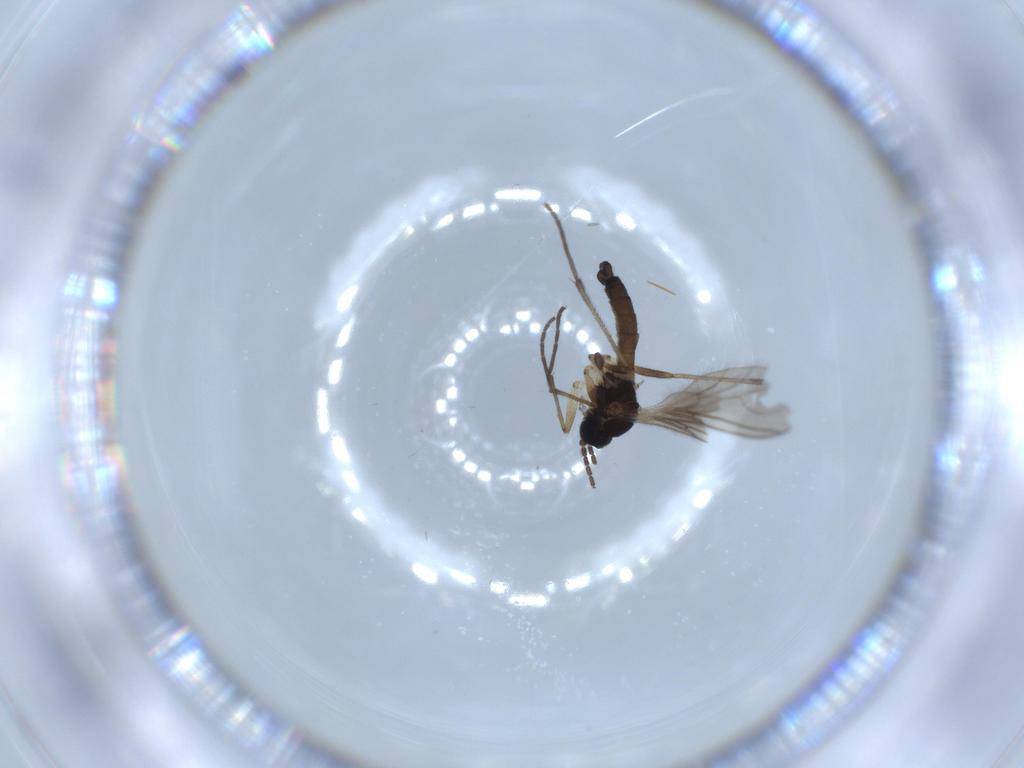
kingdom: Animalia
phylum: Arthropoda
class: Insecta
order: Diptera
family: Sciaridae
